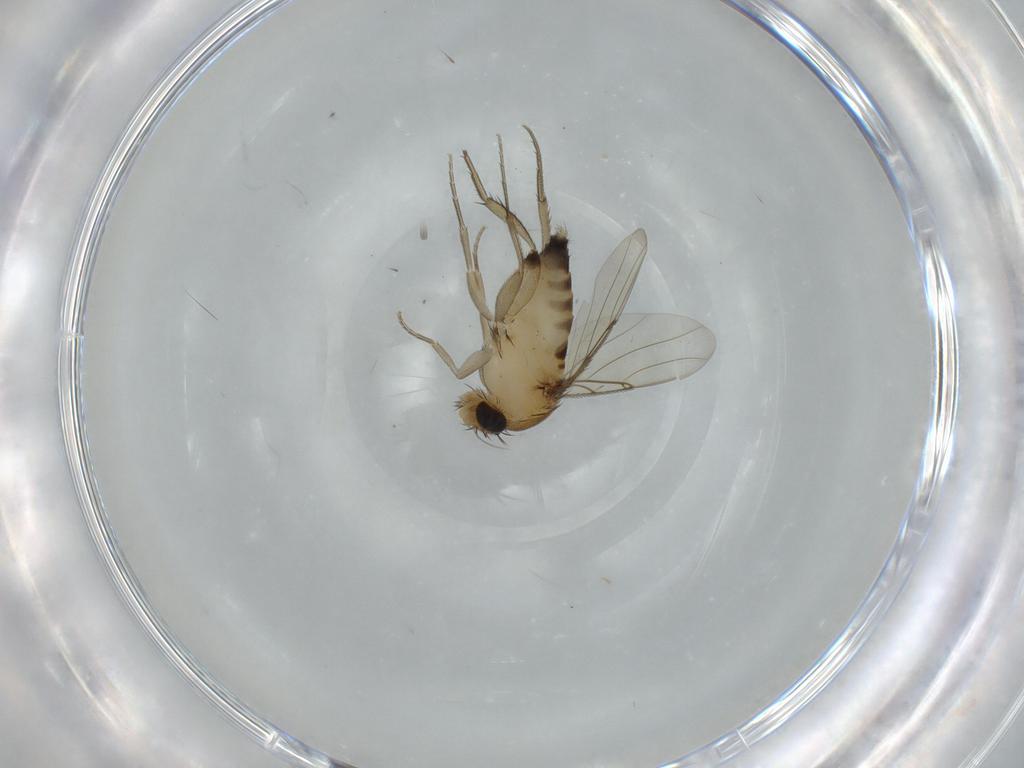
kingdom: Animalia
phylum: Arthropoda
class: Insecta
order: Diptera
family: Phoridae
